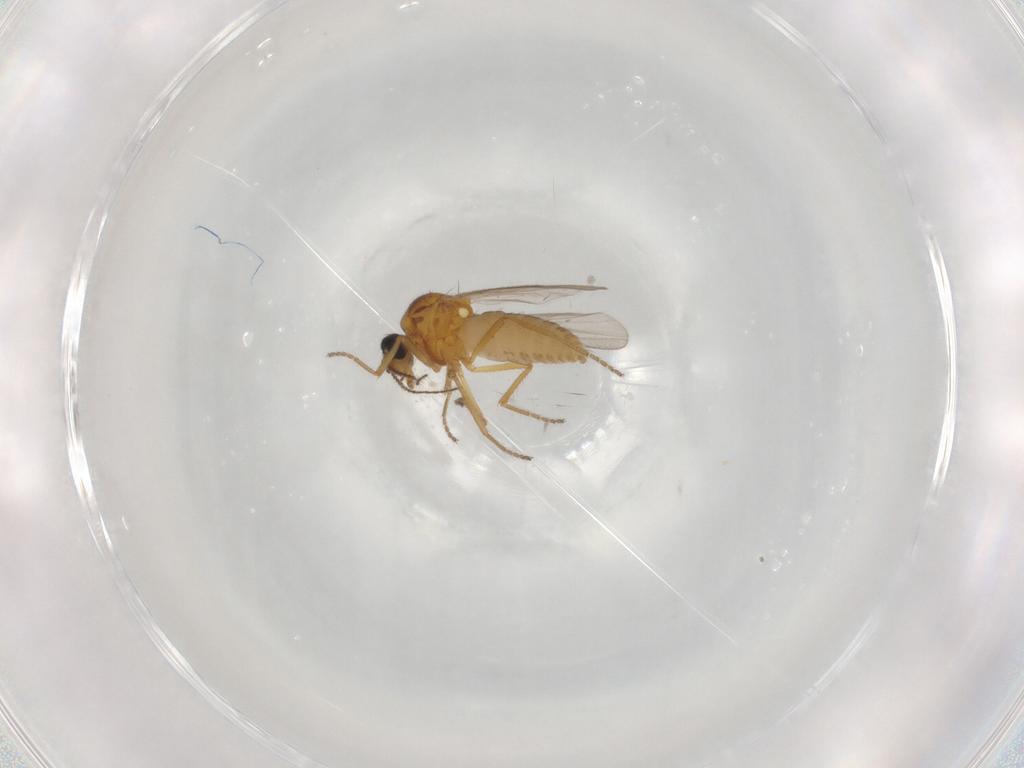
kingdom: Animalia
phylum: Arthropoda
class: Insecta
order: Diptera
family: Ceratopogonidae
